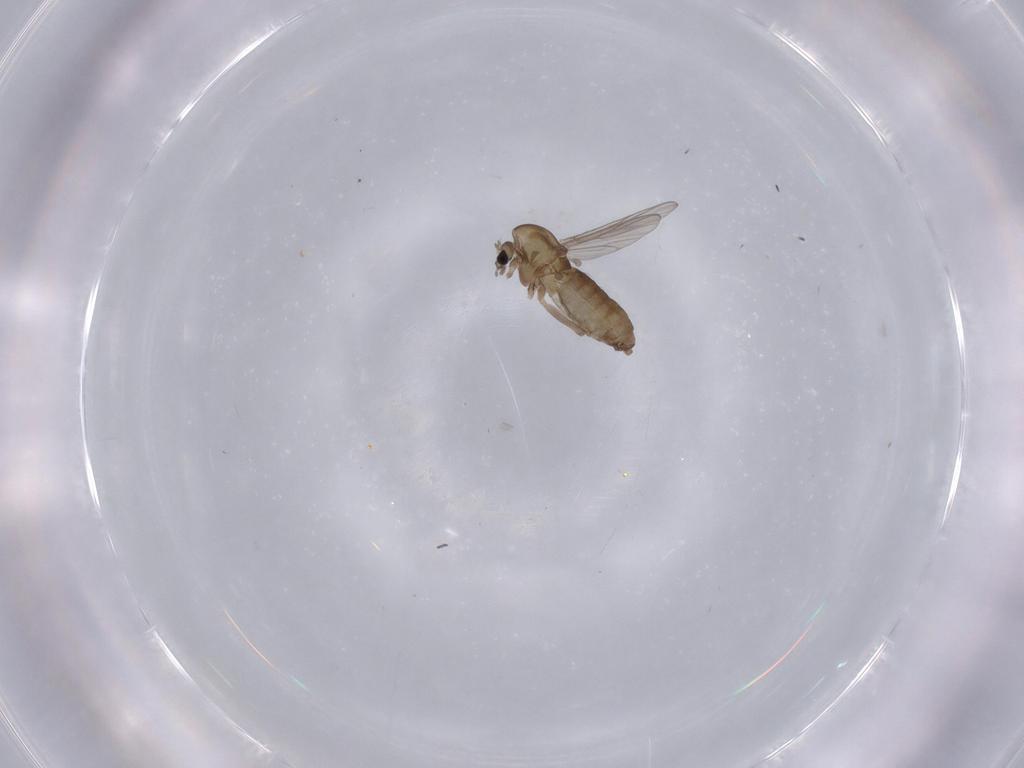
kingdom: Animalia
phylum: Arthropoda
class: Insecta
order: Diptera
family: Chironomidae
